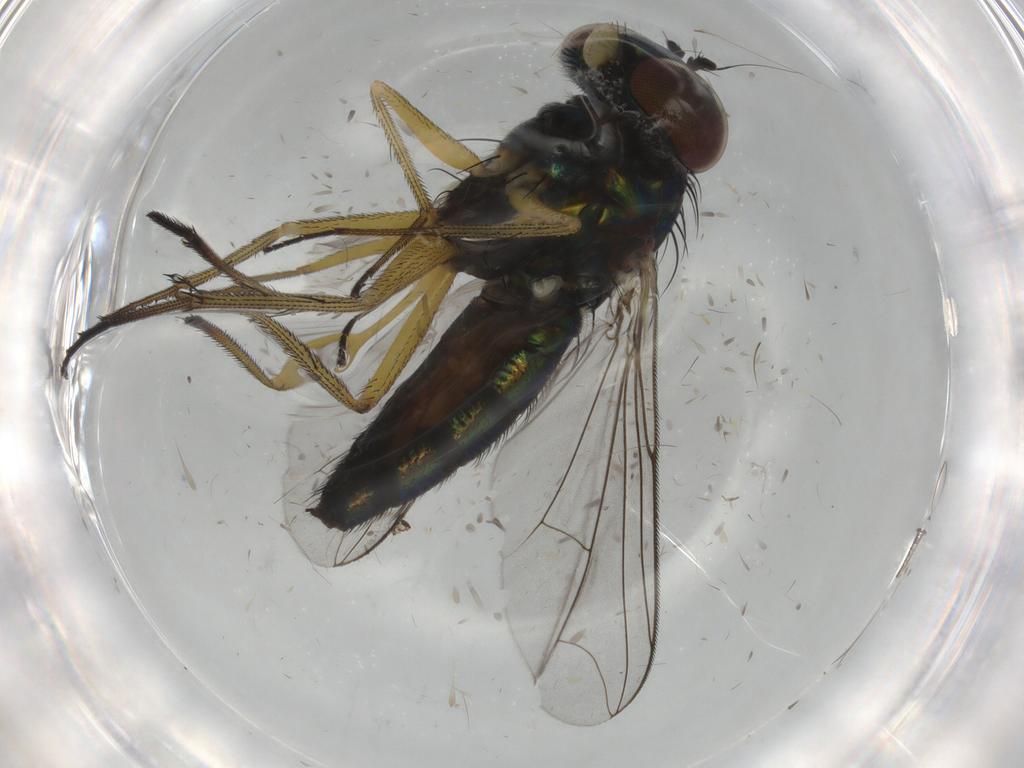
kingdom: Animalia
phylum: Arthropoda
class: Insecta
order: Diptera
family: Dolichopodidae
